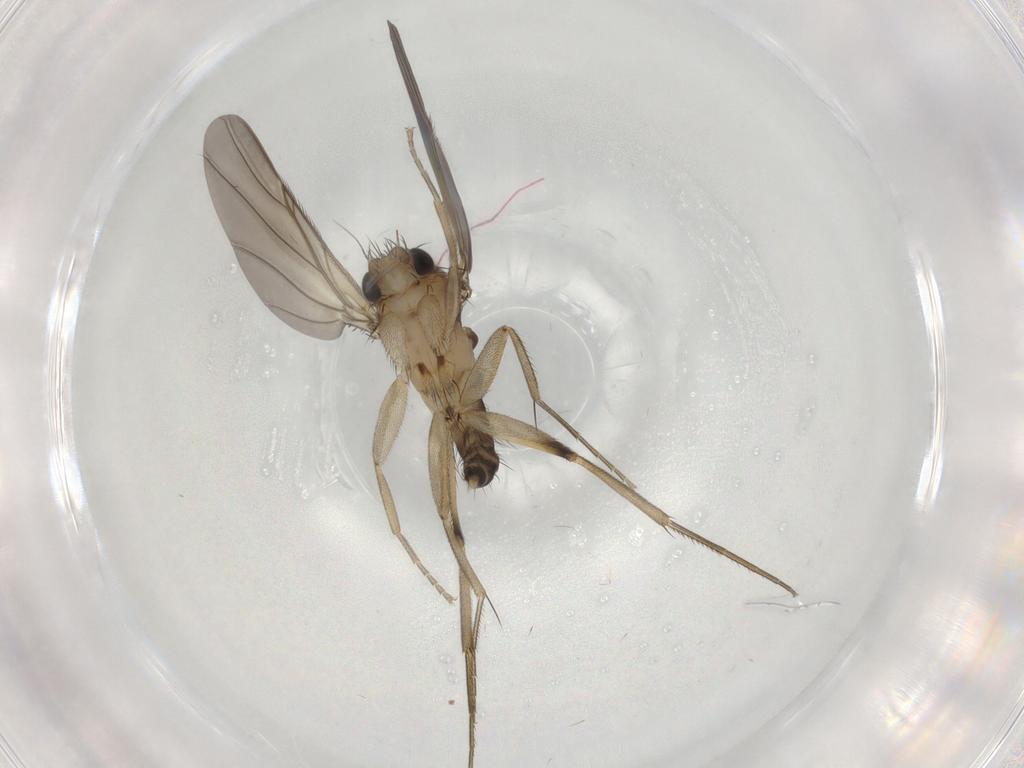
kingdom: Animalia
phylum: Arthropoda
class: Insecta
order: Diptera
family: Phoridae
